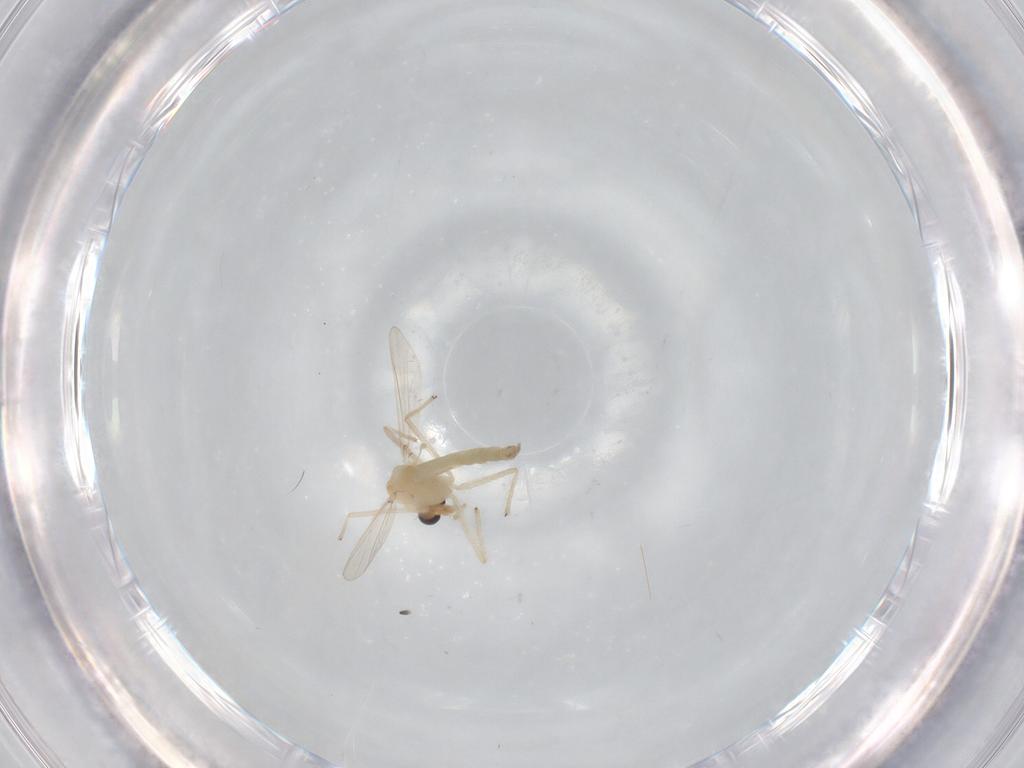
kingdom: Animalia
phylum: Arthropoda
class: Insecta
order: Diptera
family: Chironomidae
